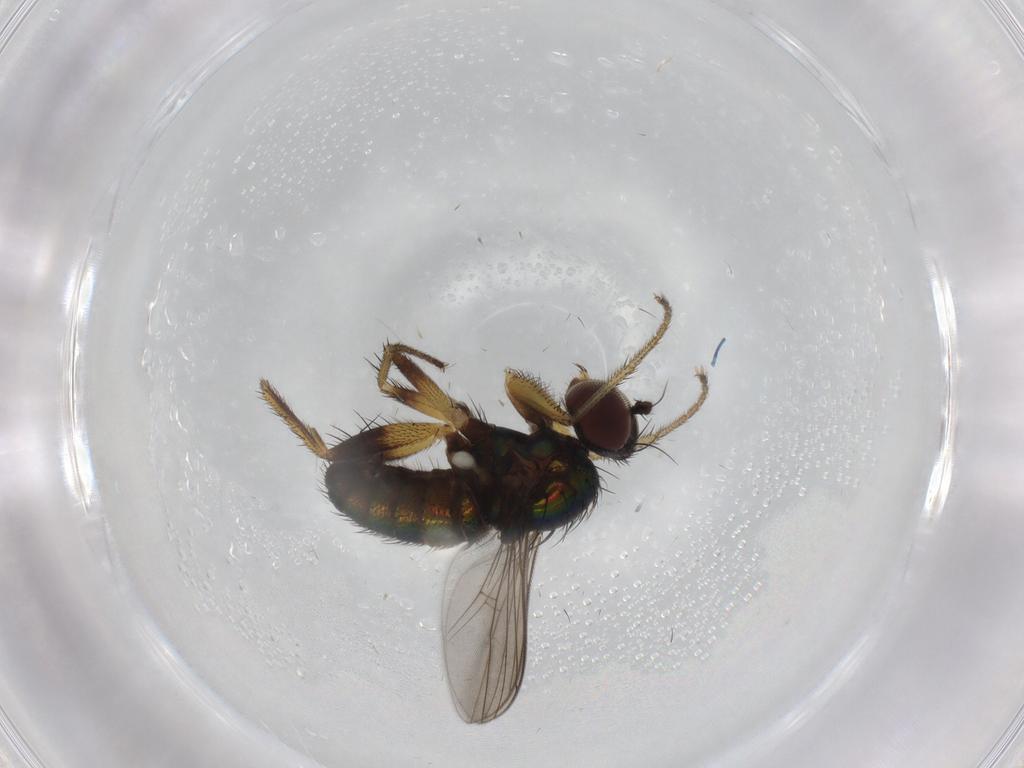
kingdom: Animalia
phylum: Arthropoda
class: Insecta
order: Diptera
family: Dolichopodidae
